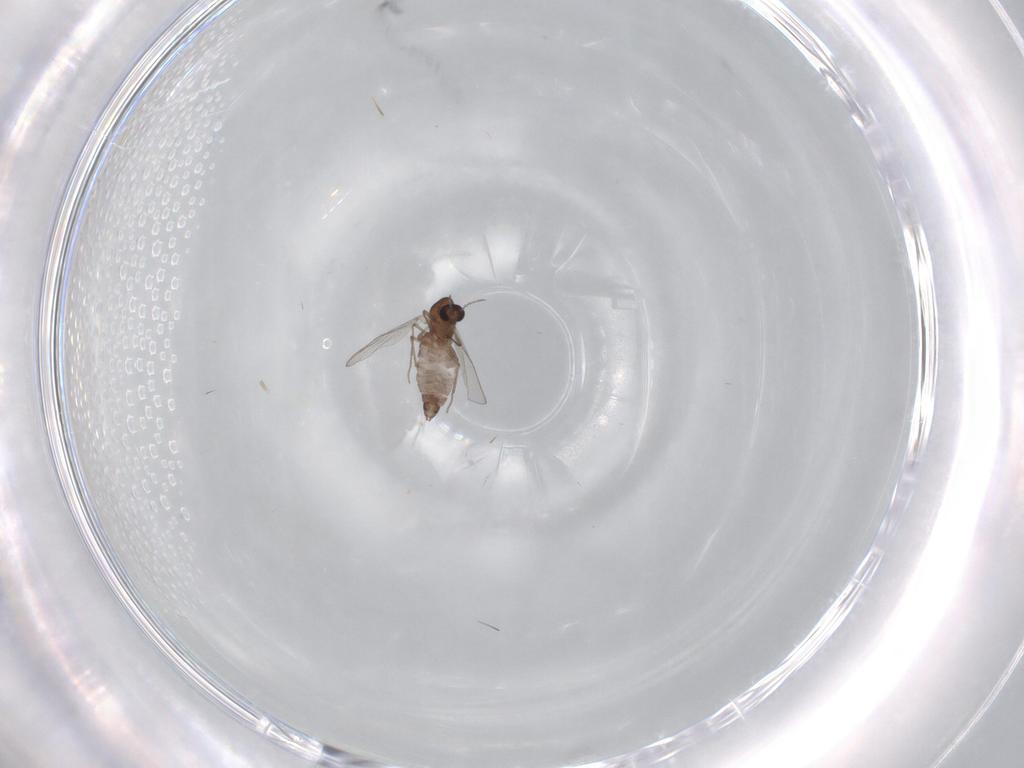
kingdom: Animalia
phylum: Arthropoda
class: Insecta
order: Diptera
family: Chironomidae
